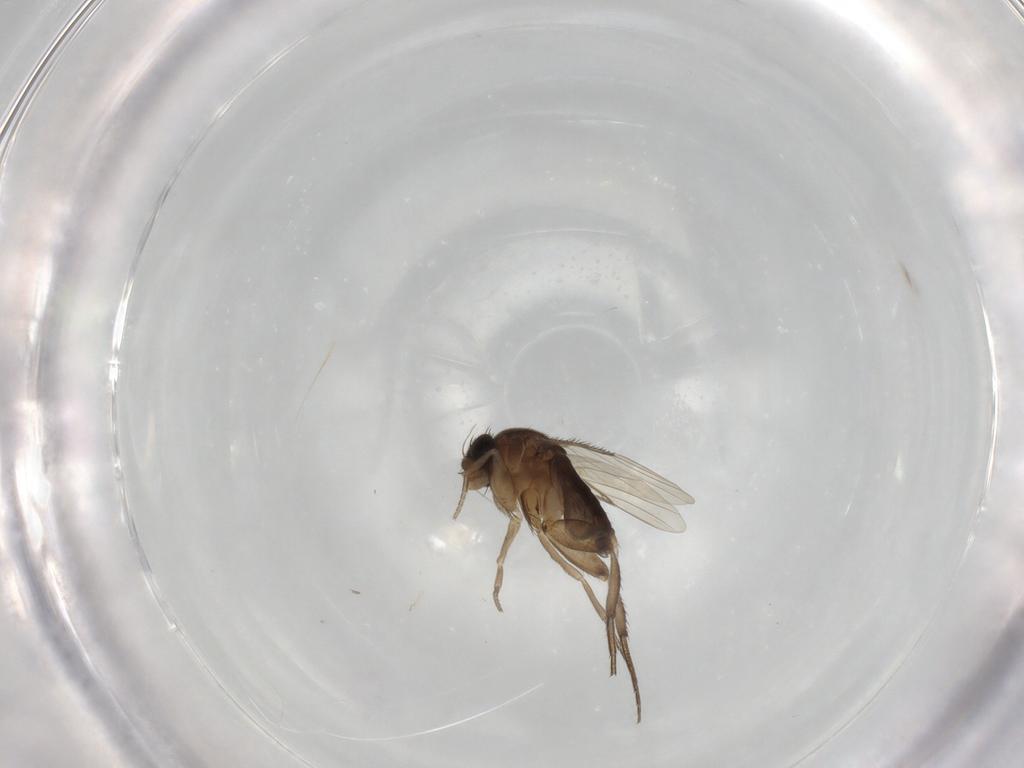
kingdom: Animalia
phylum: Arthropoda
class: Insecta
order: Diptera
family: Phoridae
